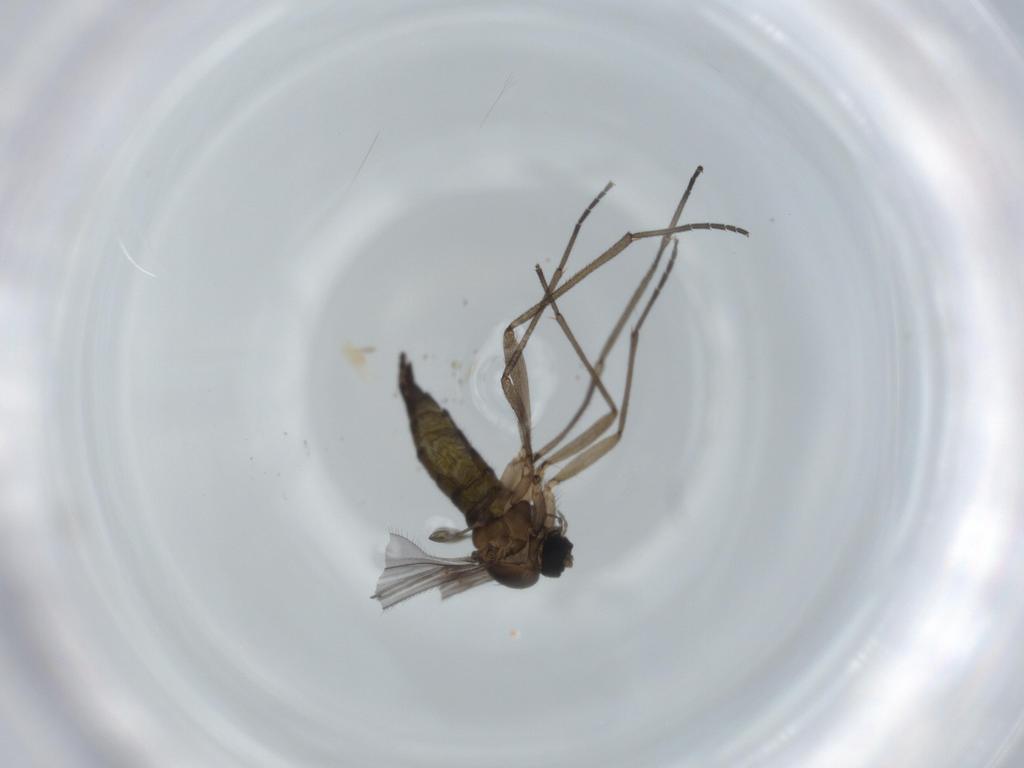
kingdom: Animalia
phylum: Arthropoda
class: Insecta
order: Diptera
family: Sciaridae
